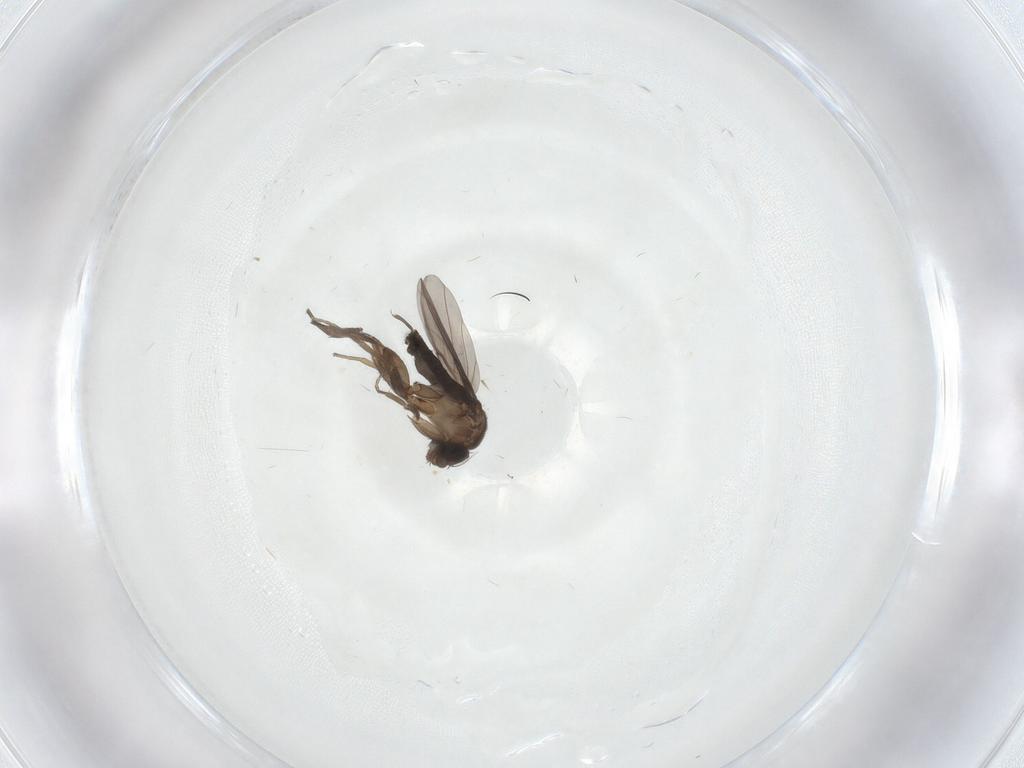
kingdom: Animalia
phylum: Arthropoda
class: Insecta
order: Diptera
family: Phoridae
